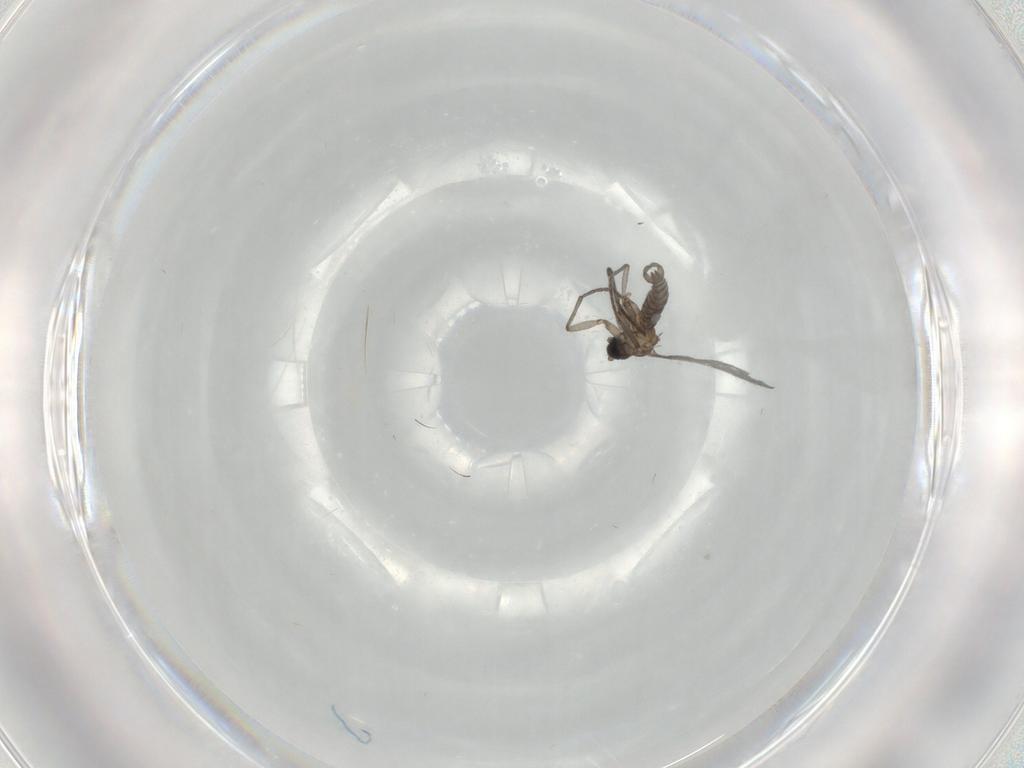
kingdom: Animalia
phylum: Arthropoda
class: Insecta
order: Diptera
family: Sciaridae
